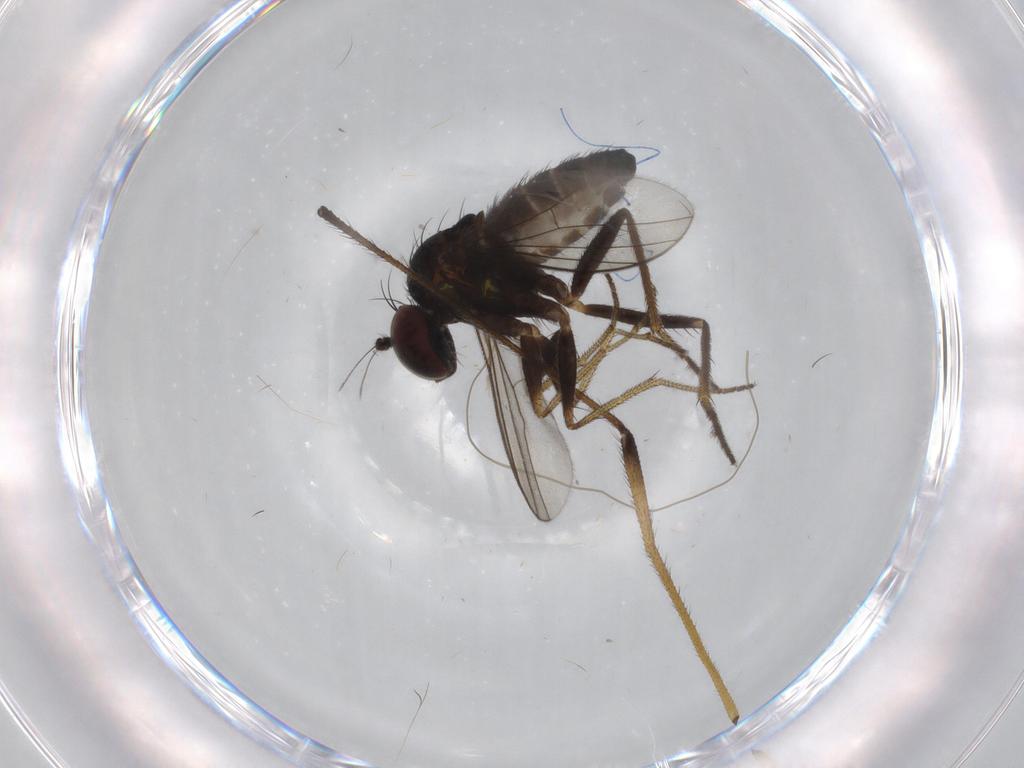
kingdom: Animalia
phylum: Arthropoda
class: Insecta
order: Diptera
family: Limoniidae
